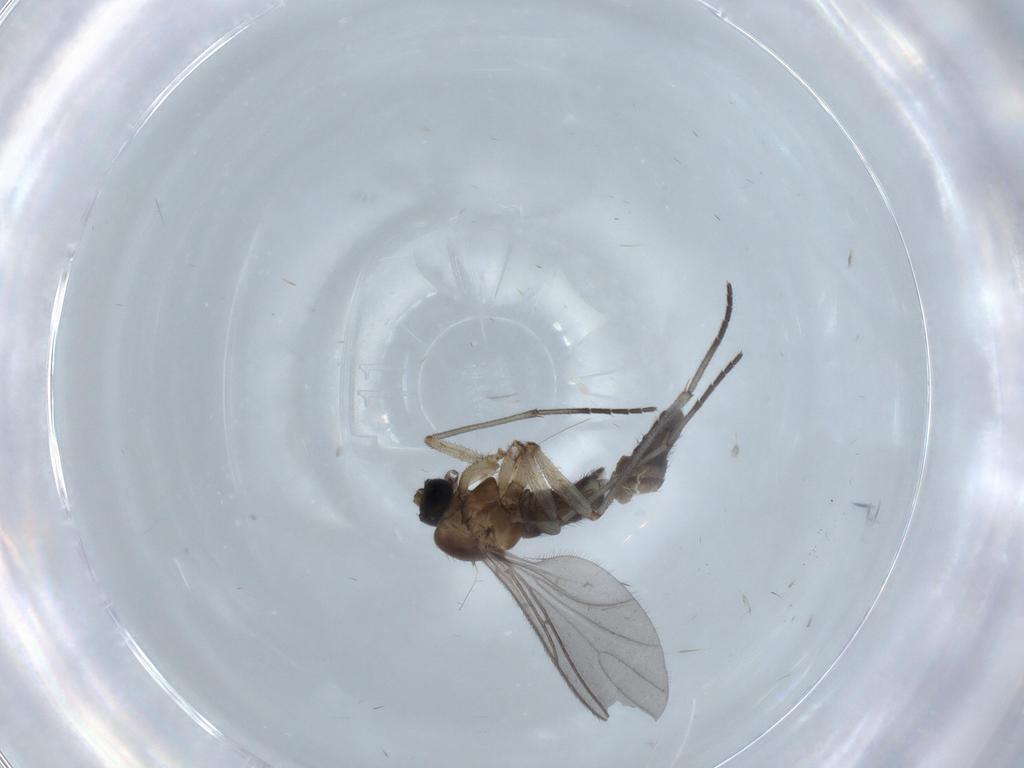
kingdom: Animalia
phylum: Arthropoda
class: Insecta
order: Diptera
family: Sciaridae
